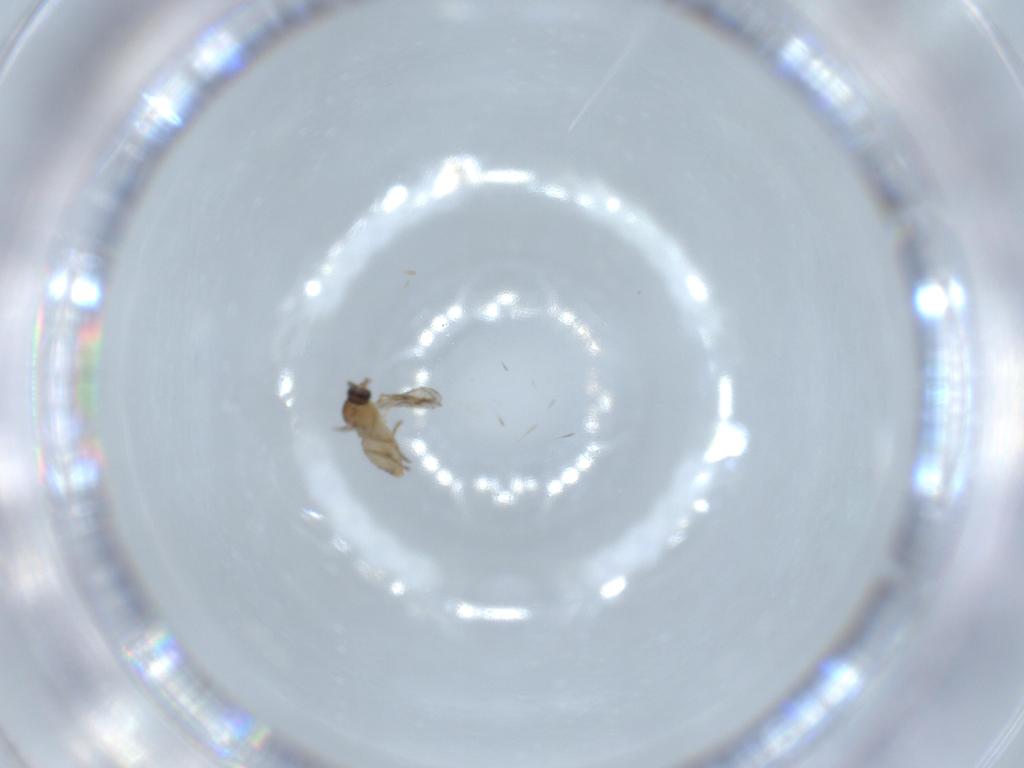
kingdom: Animalia
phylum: Arthropoda
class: Insecta
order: Diptera
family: Ceratopogonidae
